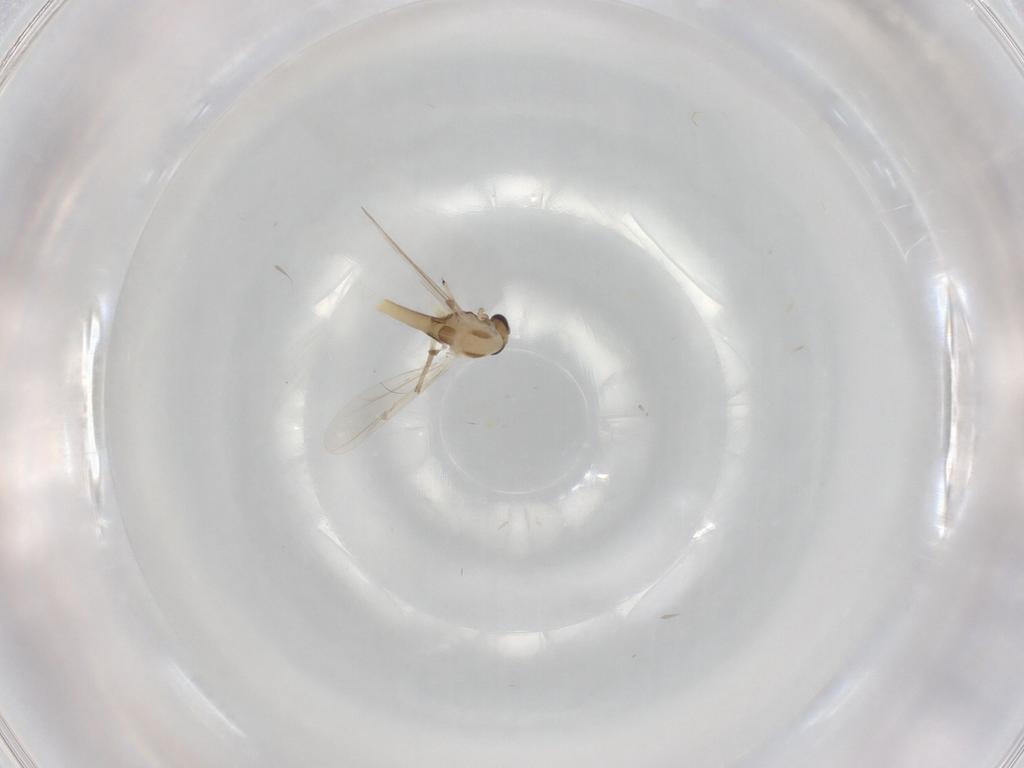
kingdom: Animalia
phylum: Arthropoda
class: Insecta
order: Diptera
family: Chironomidae
